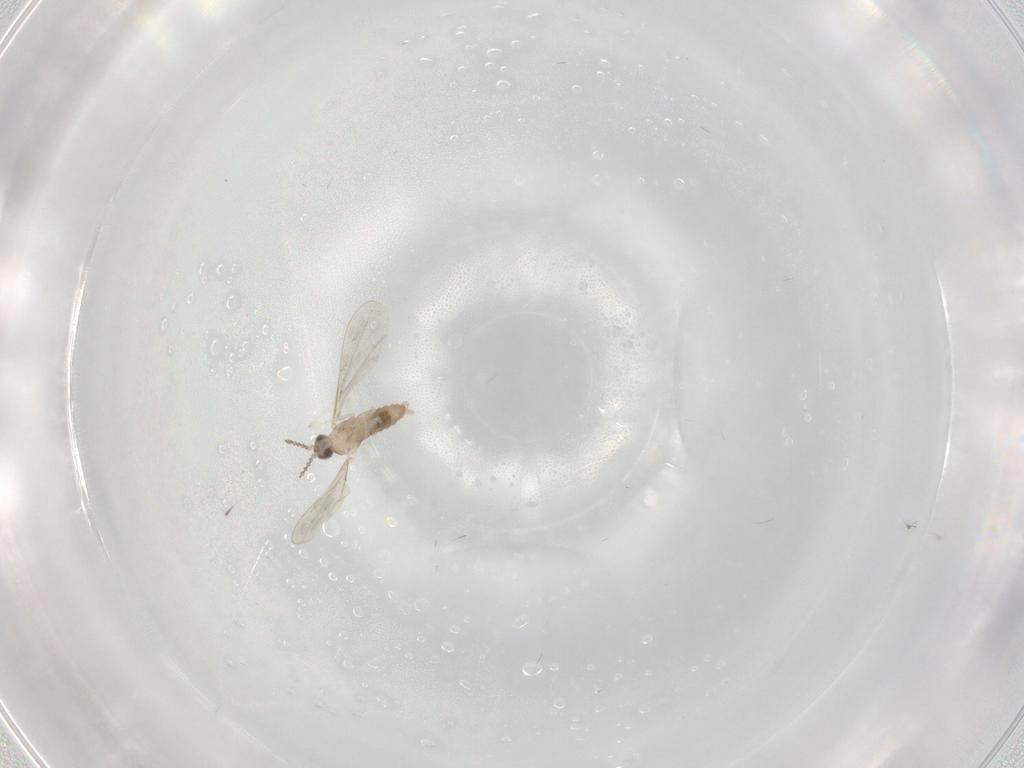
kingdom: Animalia
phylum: Arthropoda
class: Insecta
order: Diptera
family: Cecidomyiidae
